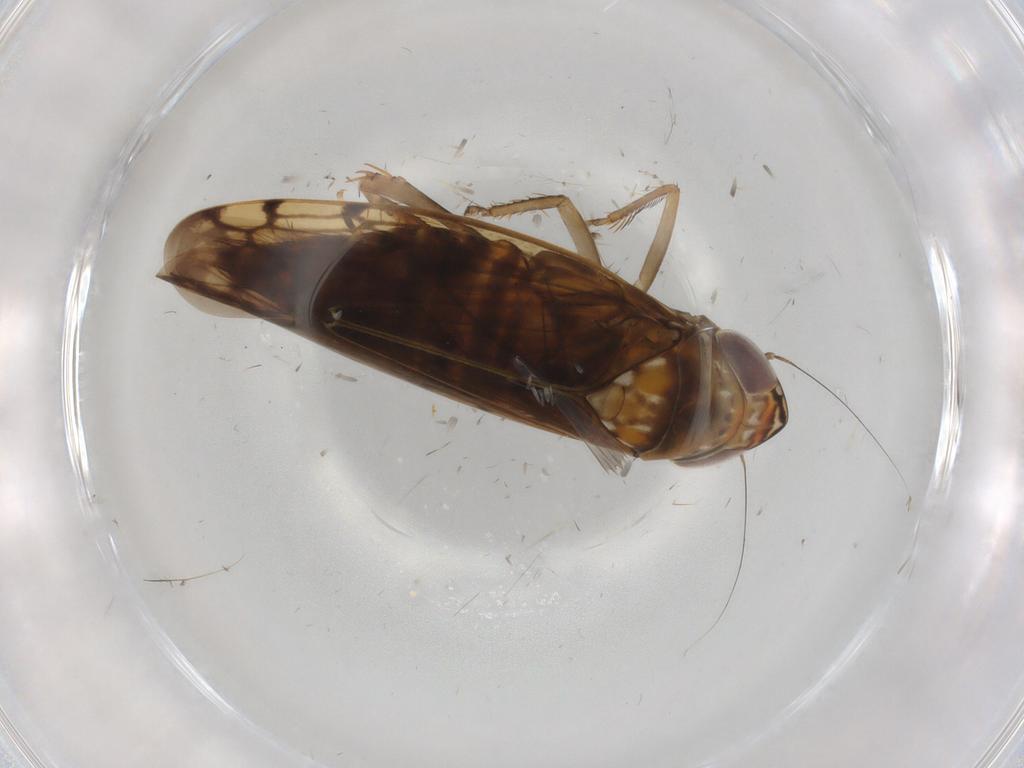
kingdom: Animalia
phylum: Arthropoda
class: Insecta
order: Hemiptera
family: Cicadellidae
